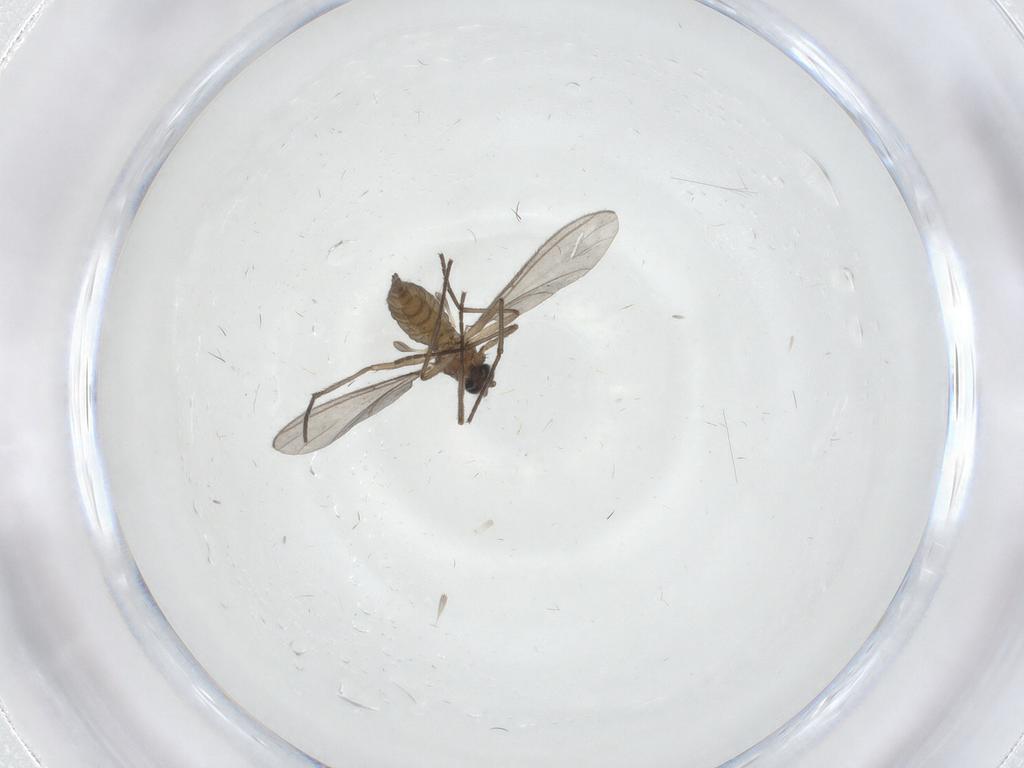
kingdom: Animalia
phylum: Arthropoda
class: Insecta
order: Diptera
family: Sciaridae
